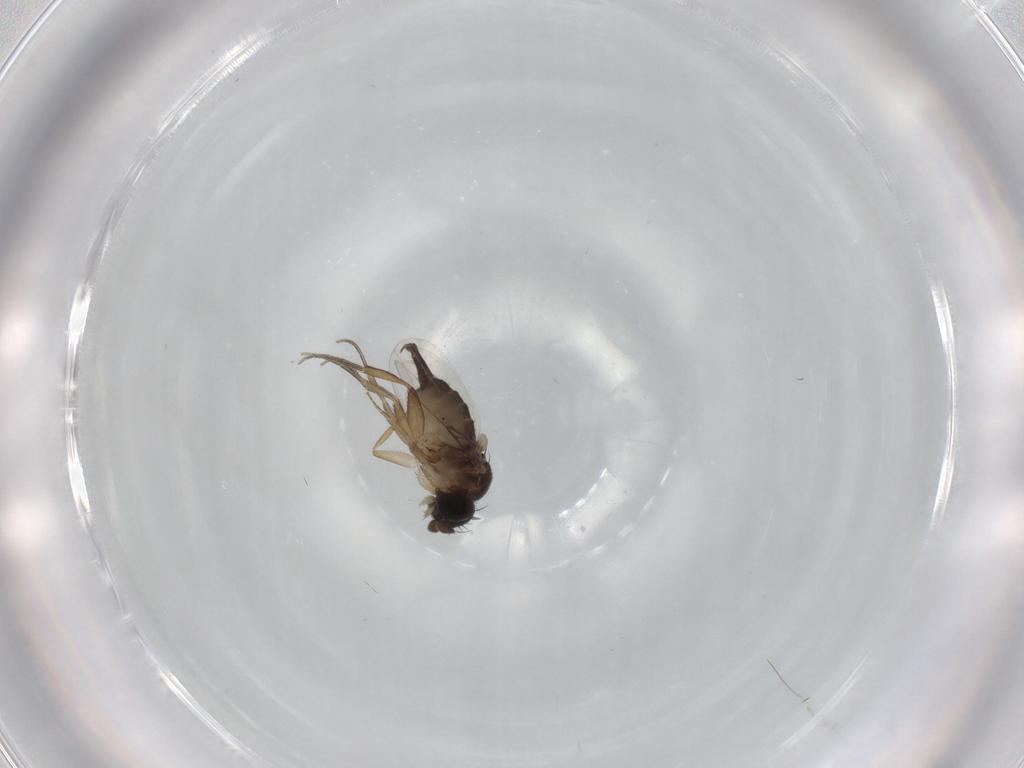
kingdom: Animalia
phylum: Arthropoda
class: Insecta
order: Diptera
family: Phoridae
